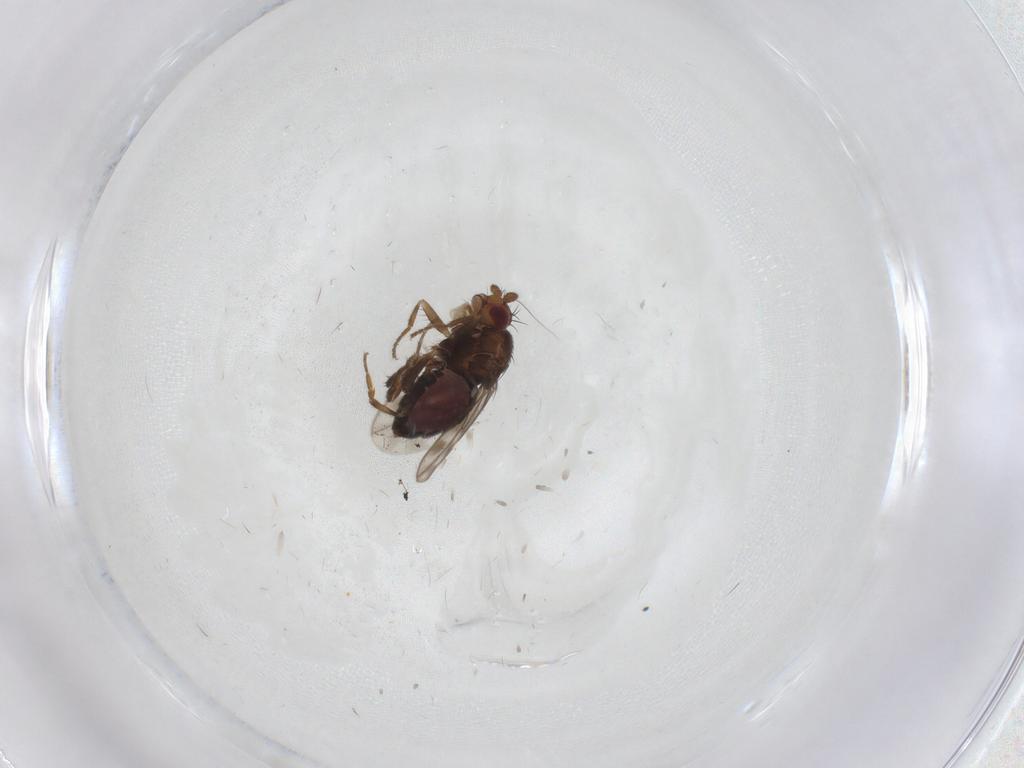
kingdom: Animalia
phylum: Arthropoda
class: Insecta
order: Diptera
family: Sphaeroceridae
